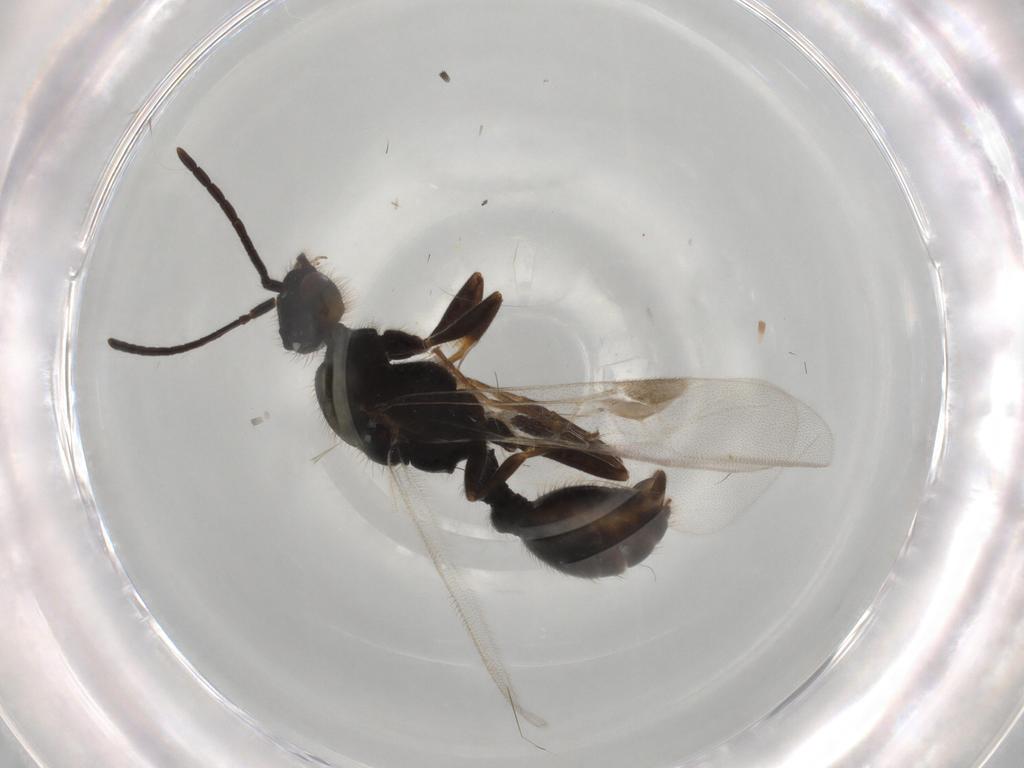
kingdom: Animalia
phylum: Arthropoda
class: Insecta
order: Hymenoptera
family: Formicidae
